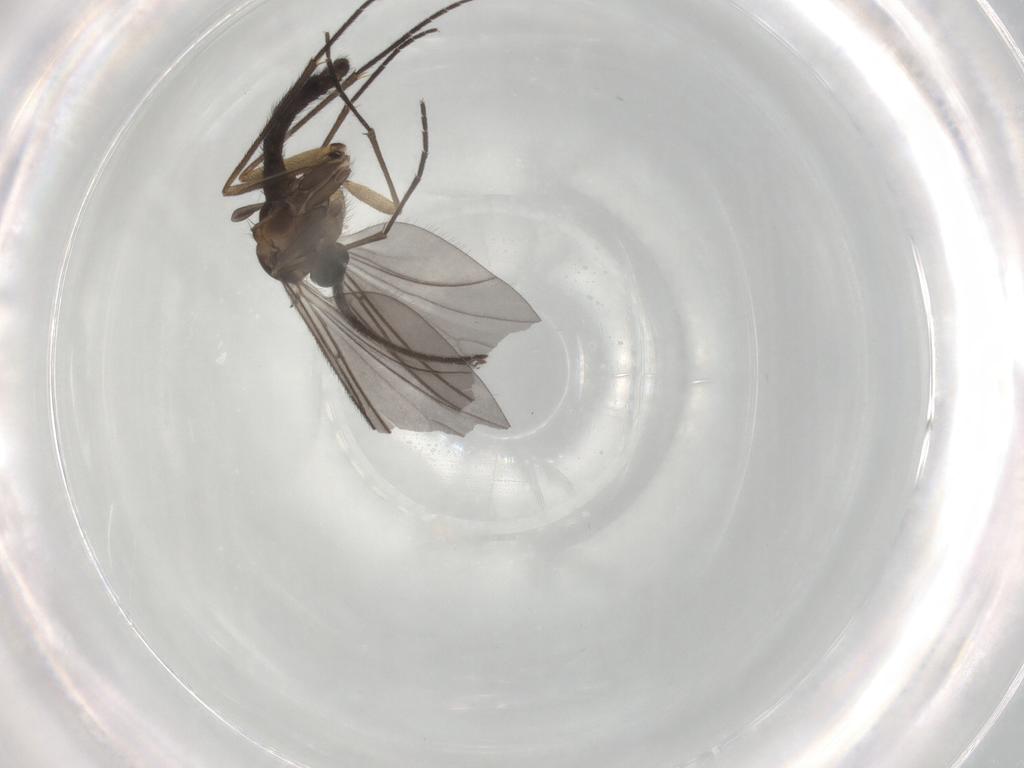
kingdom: Animalia
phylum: Arthropoda
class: Insecta
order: Diptera
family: Sciaridae
